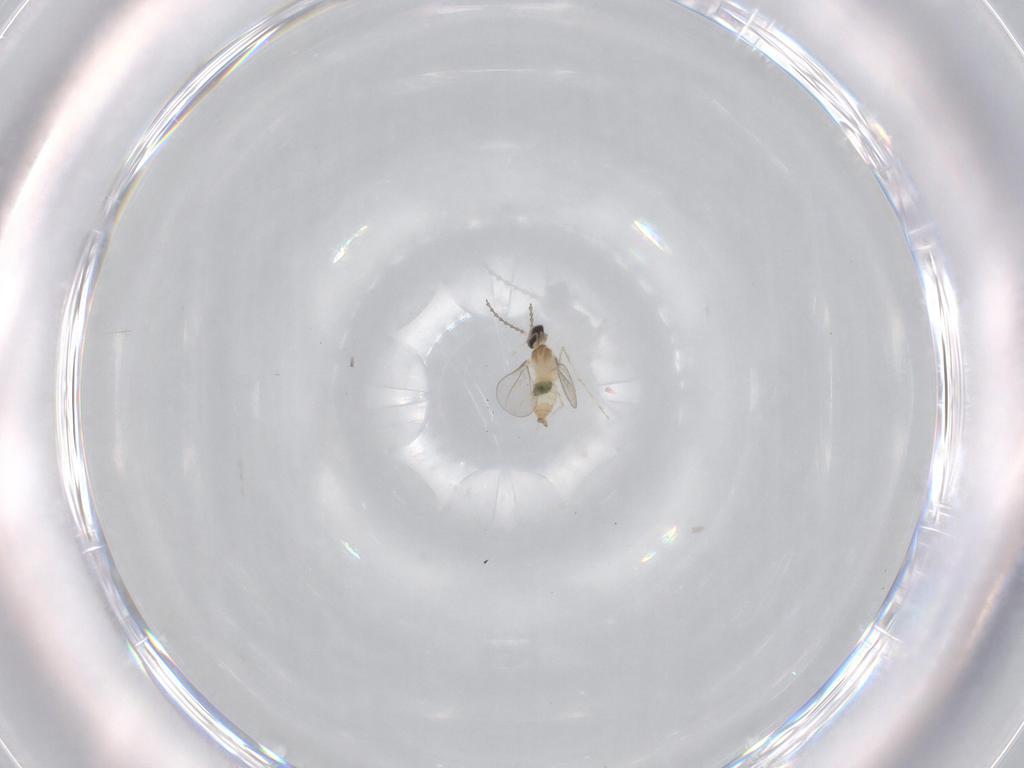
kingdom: Animalia
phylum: Arthropoda
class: Insecta
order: Diptera
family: Cecidomyiidae
